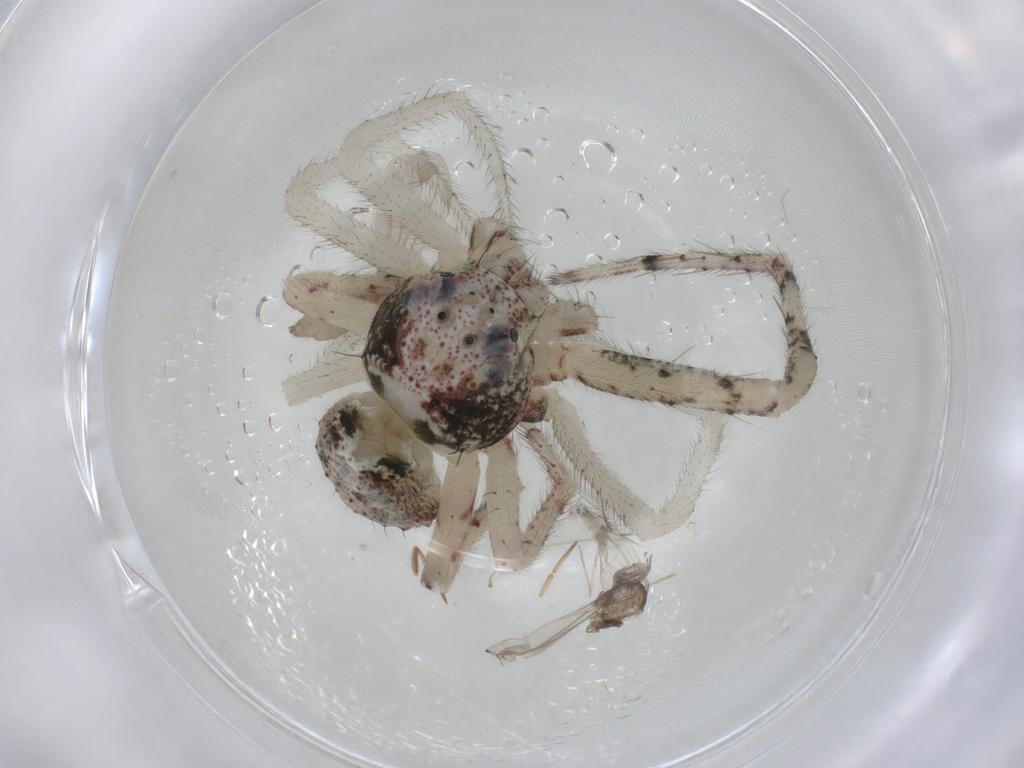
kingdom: Animalia
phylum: Arthropoda
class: Insecta
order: Diptera
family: Cecidomyiidae
